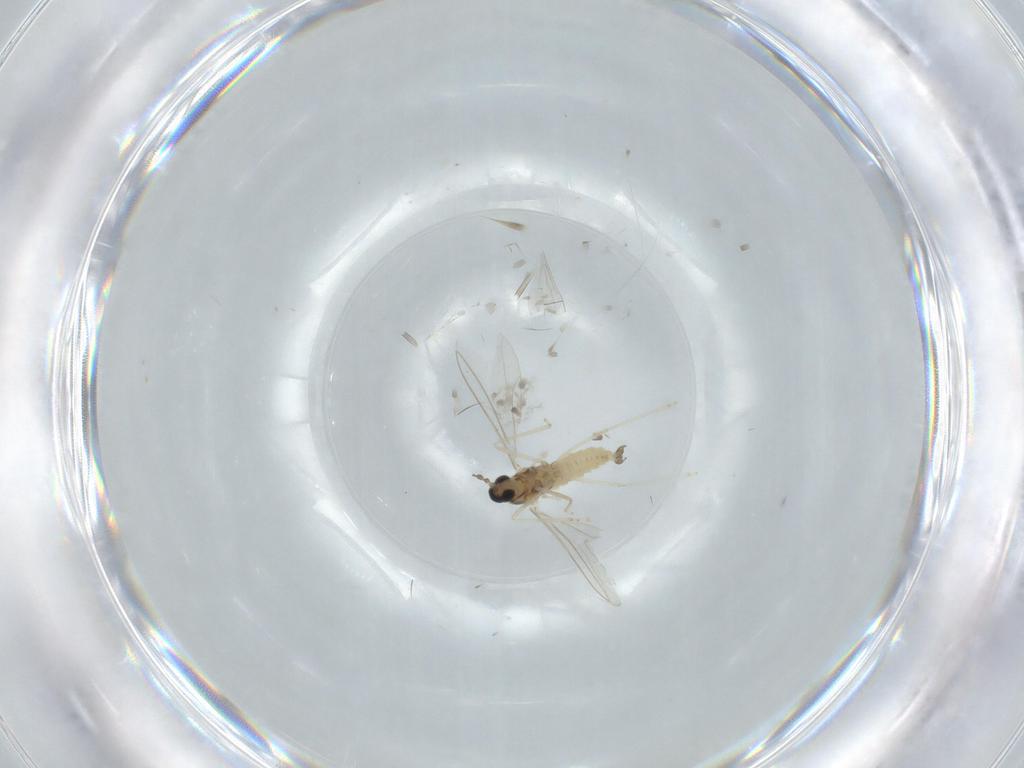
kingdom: Animalia
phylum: Arthropoda
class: Insecta
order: Diptera
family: Cecidomyiidae
